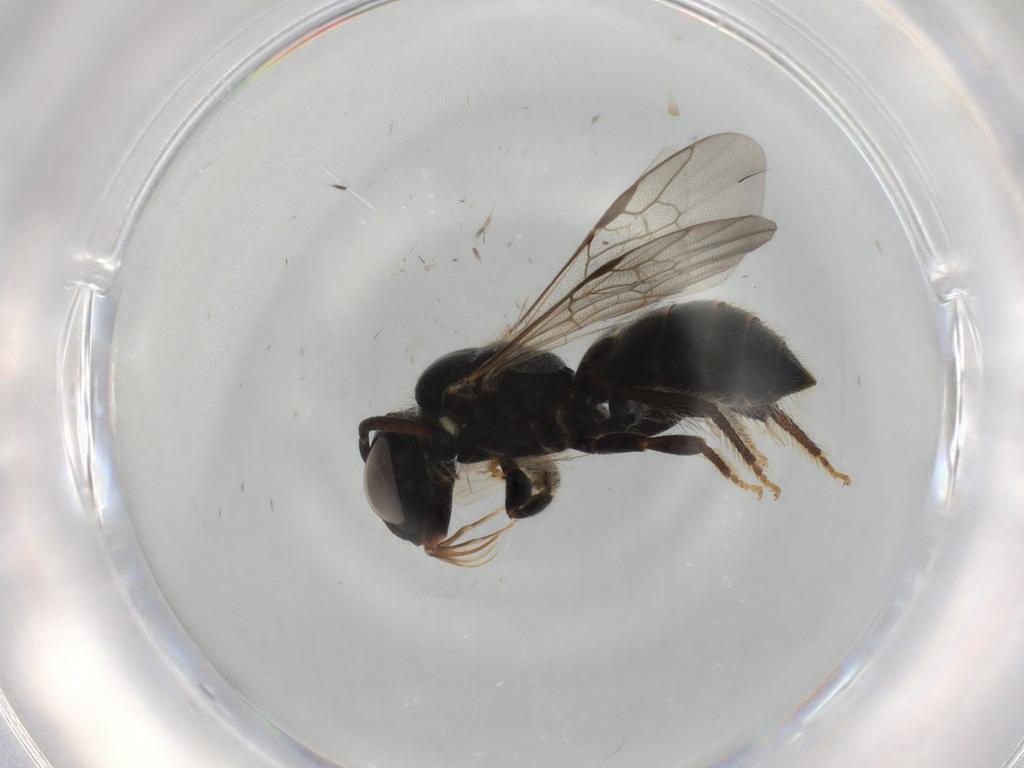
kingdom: Animalia
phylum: Arthropoda
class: Insecta
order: Hymenoptera
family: Apidae
